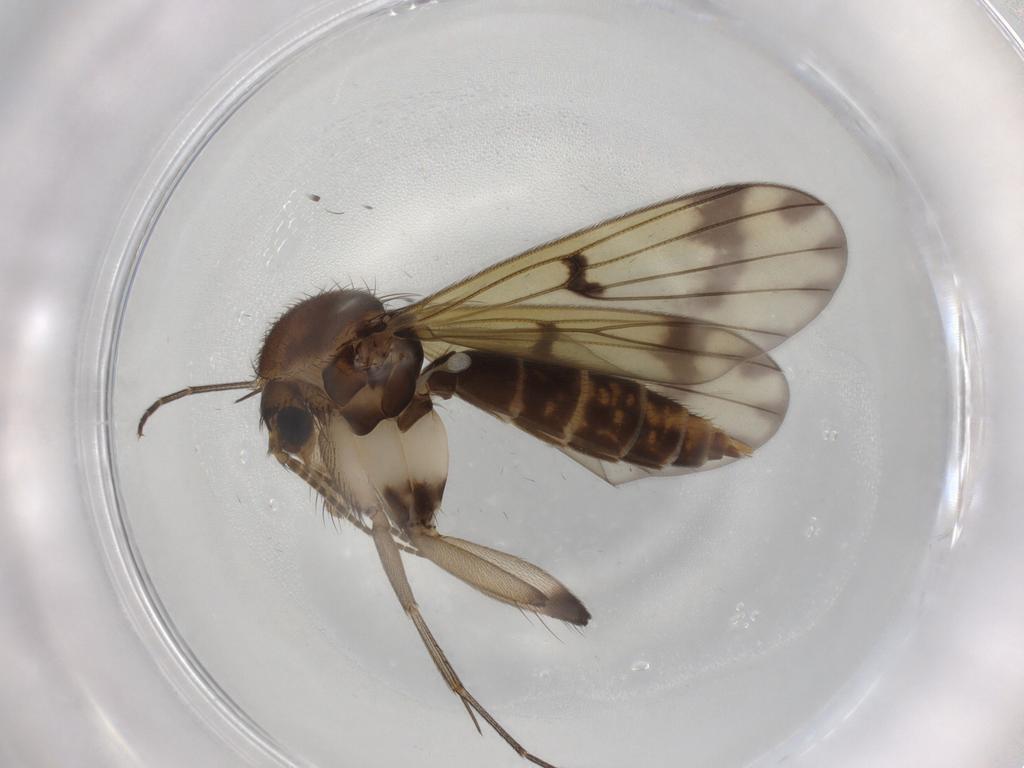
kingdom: Animalia
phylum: Arthropoda
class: Insecta
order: Diptera
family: Mycetophilidae
